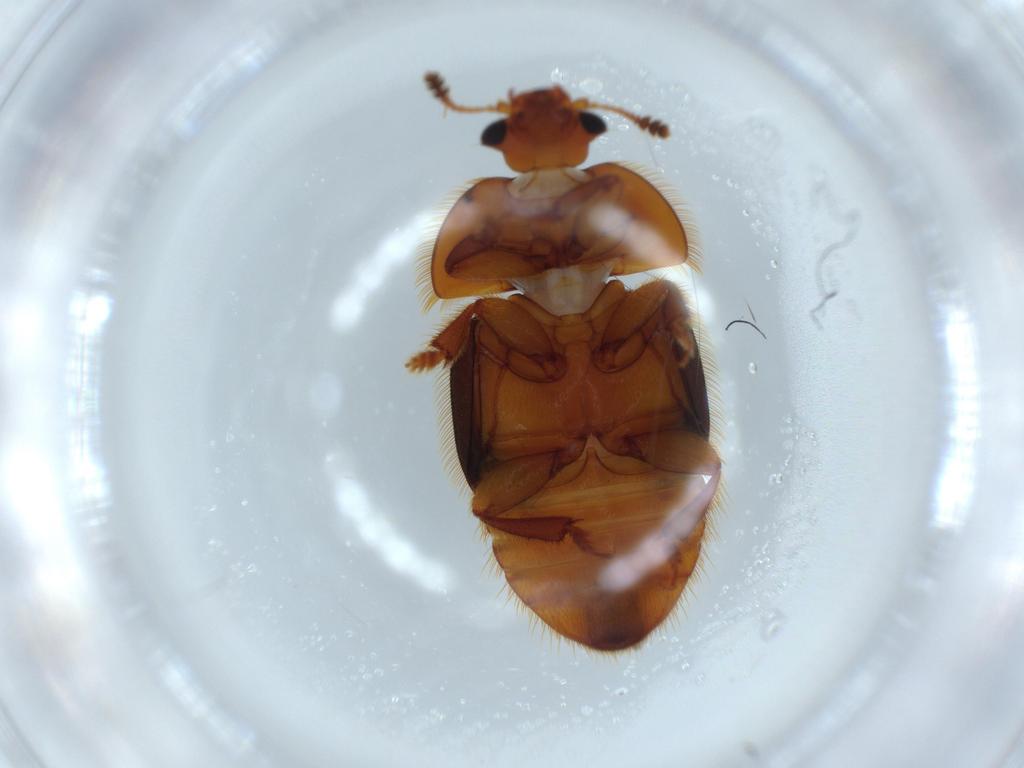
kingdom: Animalia
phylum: Arthropoda
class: Insecta
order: Coleoptera
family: Nitidulidae
